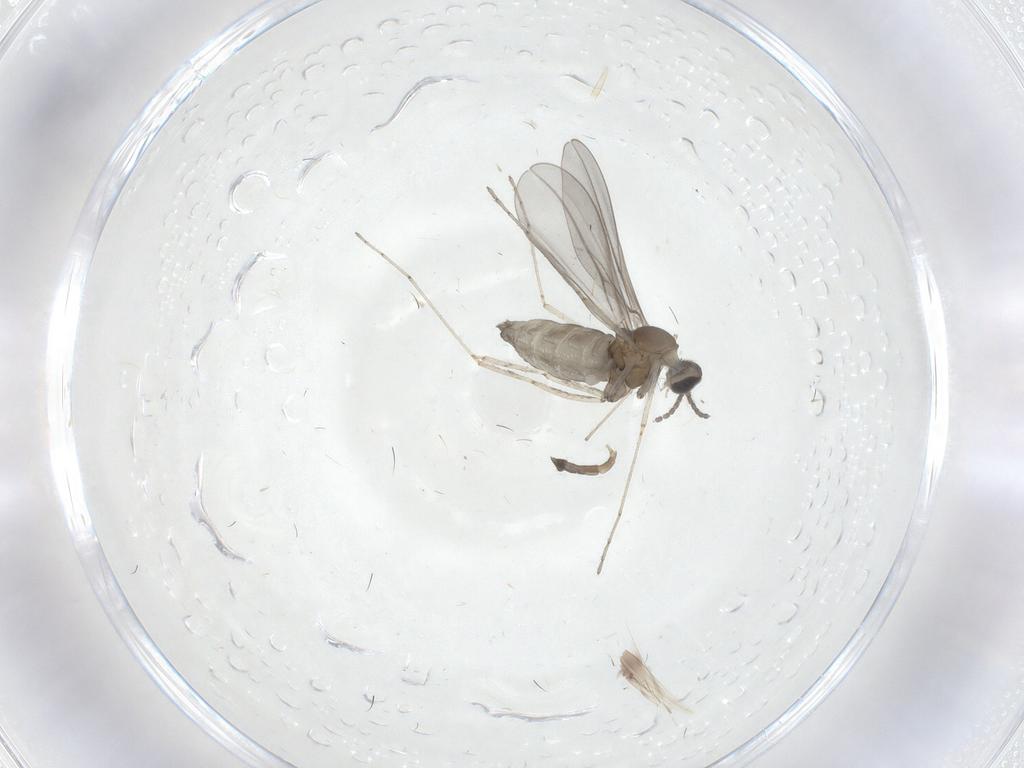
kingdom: Animalia
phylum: Arthropoda
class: Insecta
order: Diptera
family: Cecidomyiidae
